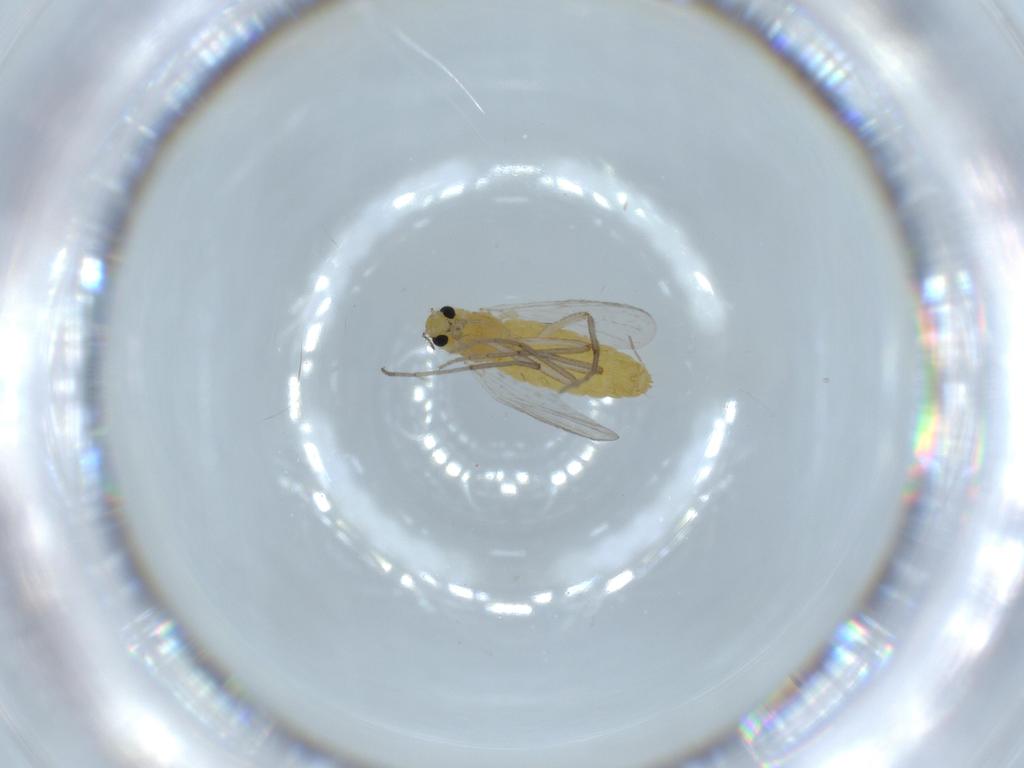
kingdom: Animalia
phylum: Arthropoda
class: Insecta
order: Diptera
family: Chironomidae
